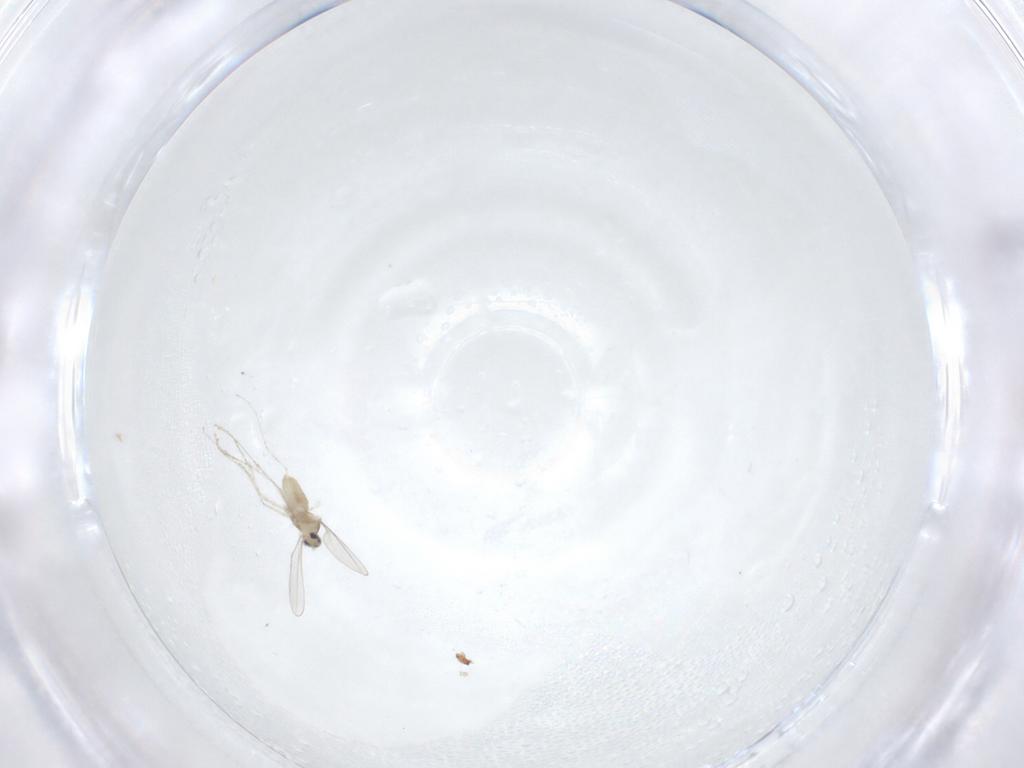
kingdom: Animalia
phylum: Arthropoda
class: Insecta
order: Diptera
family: Cecidomyiidae
